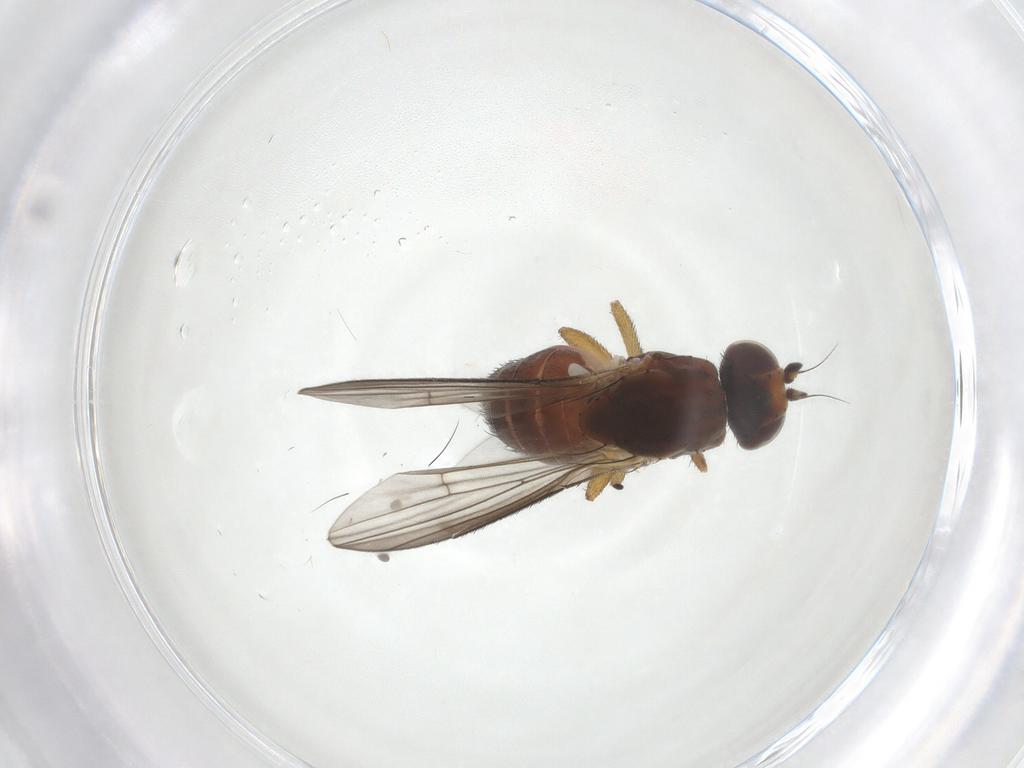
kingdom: Animalia
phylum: Arthropoda
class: Insecta
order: Diptera
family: Heleomyzidae
